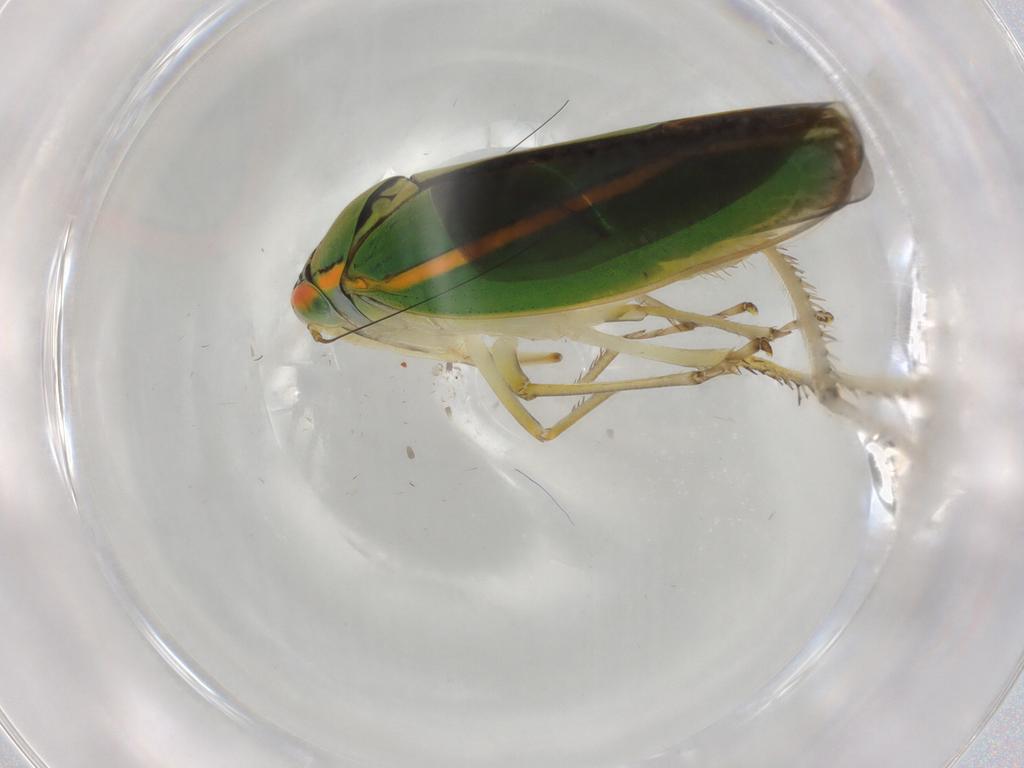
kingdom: Animalia
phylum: Arthropoda
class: Insecta
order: Hemiptera
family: Cicadellidae
